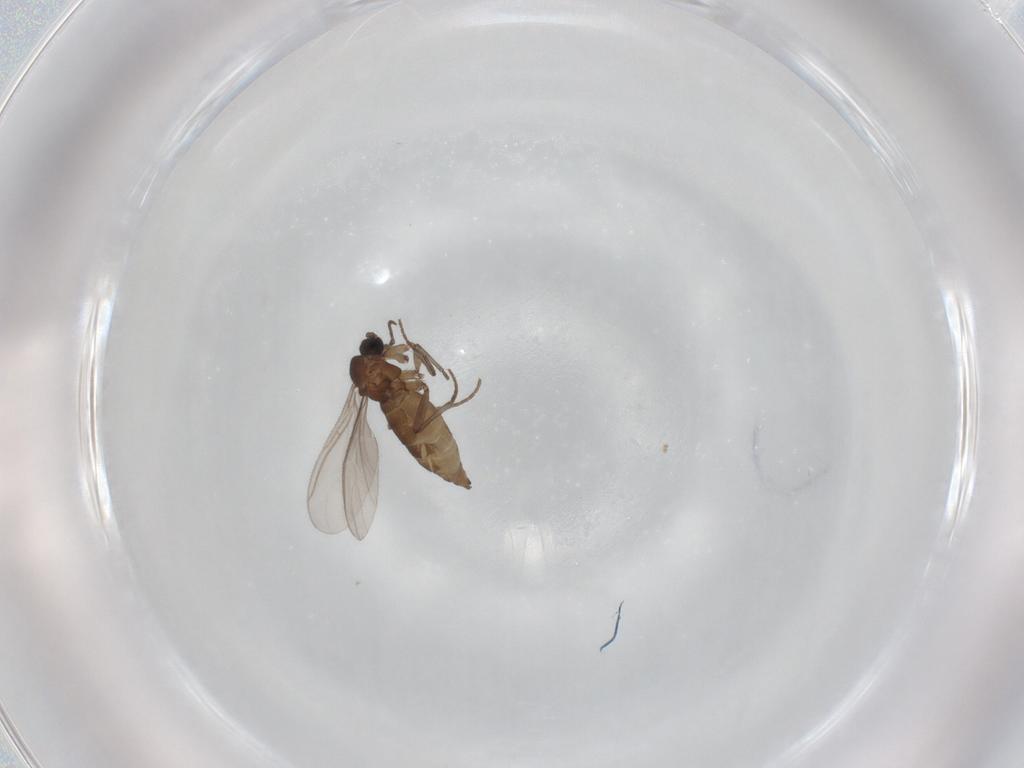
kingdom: Animalia
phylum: Arthropoda
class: Insecta
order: Diptera
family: Sciaridae
